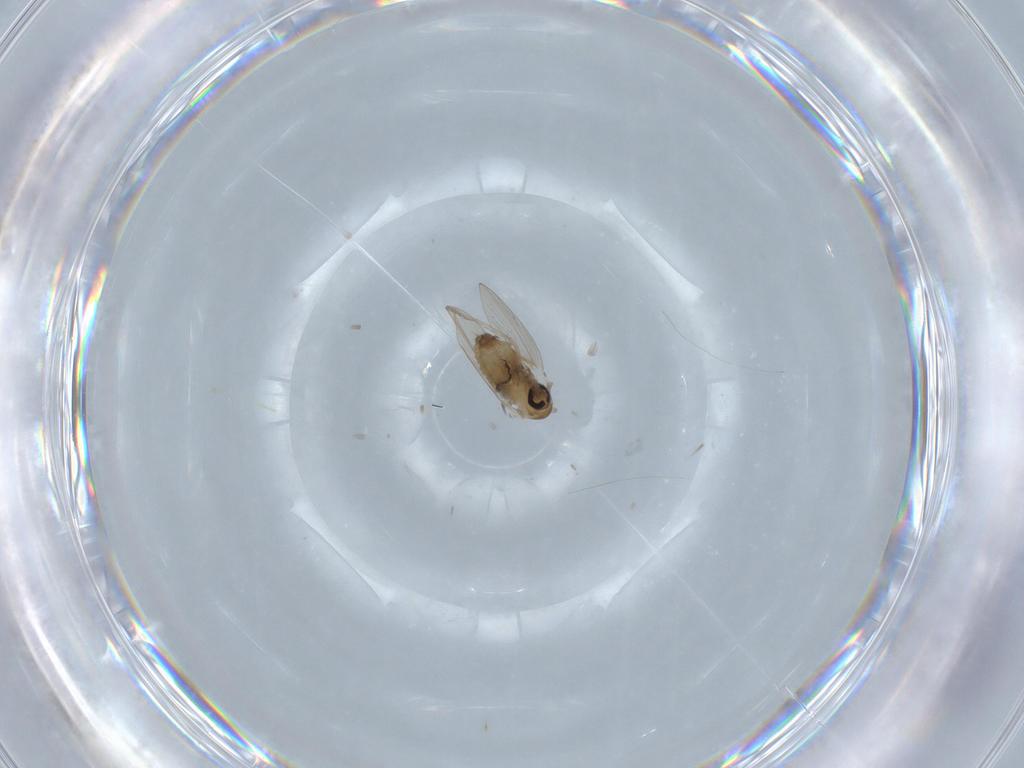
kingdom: Animalia
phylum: Arthropoda
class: Insecta
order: Diptera
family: Psychodidae
